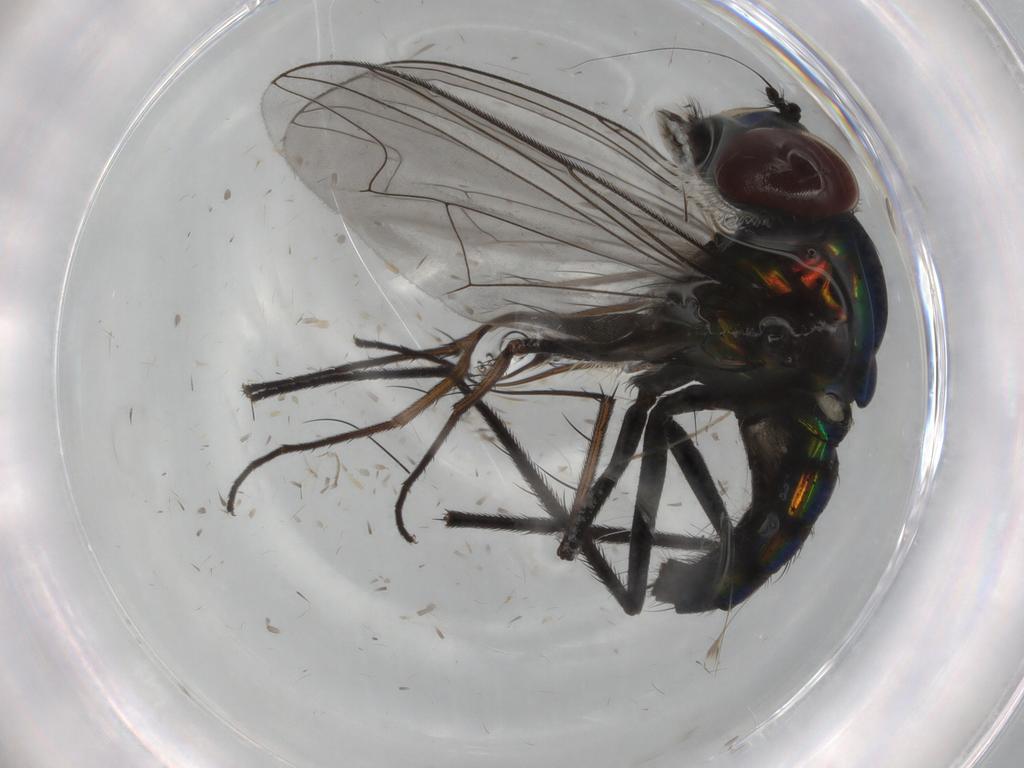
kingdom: Animalia
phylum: Arthropoda
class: Insecta
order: Diptera
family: Dolichopodidae
